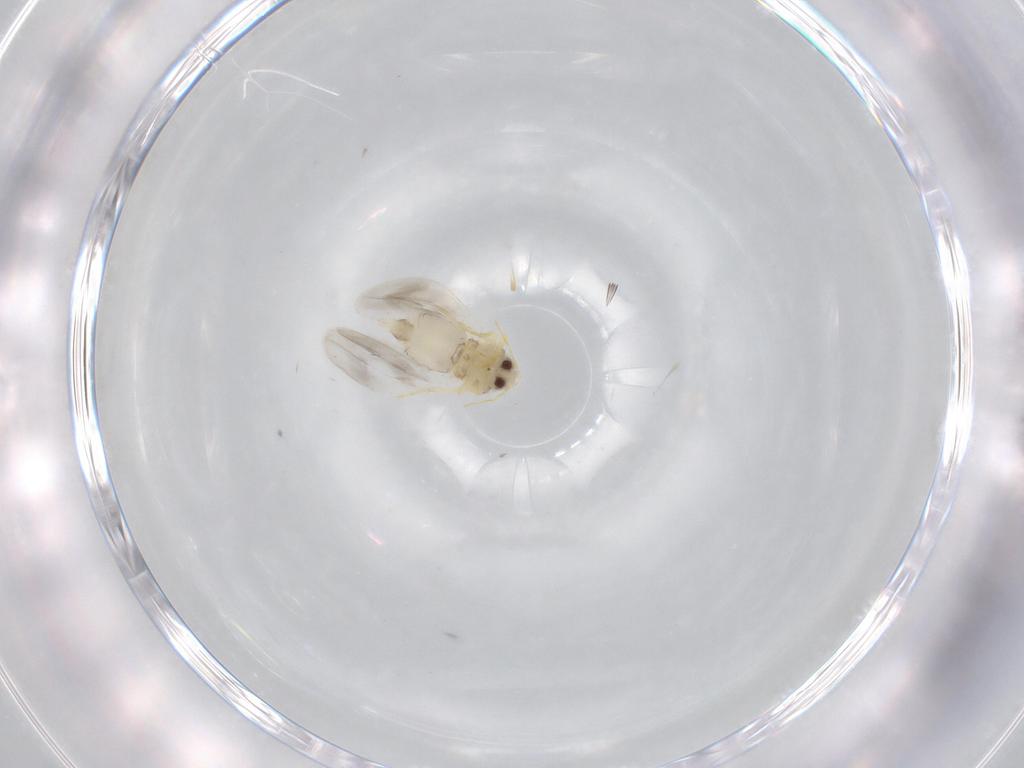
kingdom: Animalia
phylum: Arthropoda
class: Insecta
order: Hemiptera
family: Aleyrodidae
